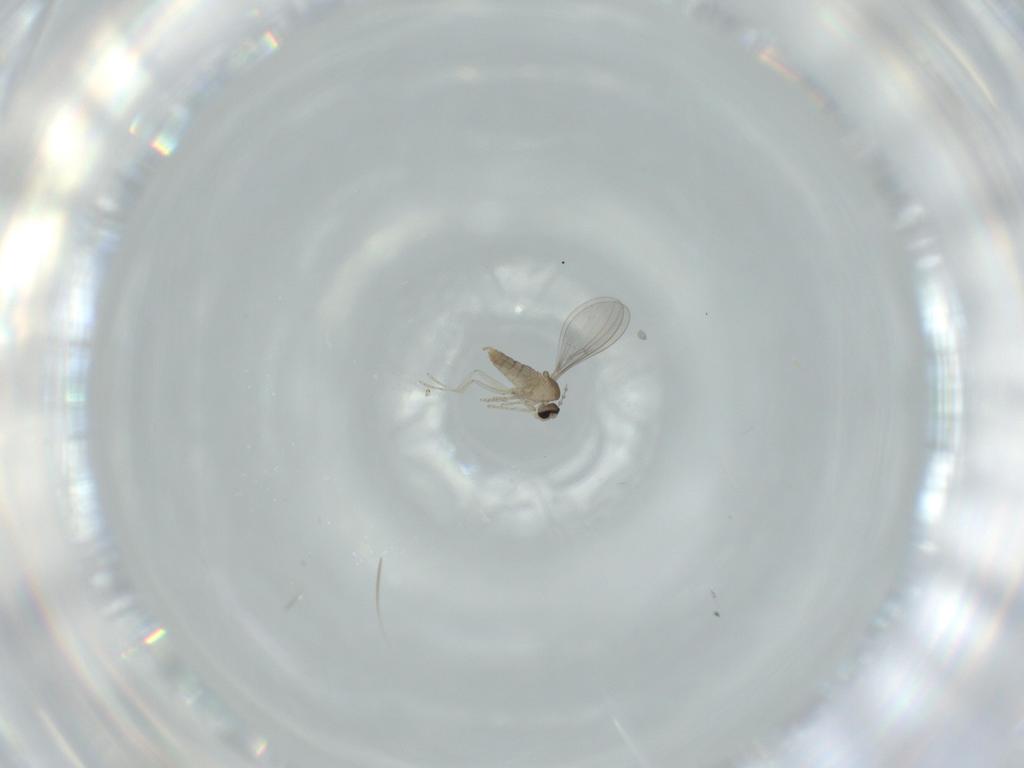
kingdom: Animalia
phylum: Arthropoda
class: Insecta
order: Diptera
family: Cecidomyiidae
